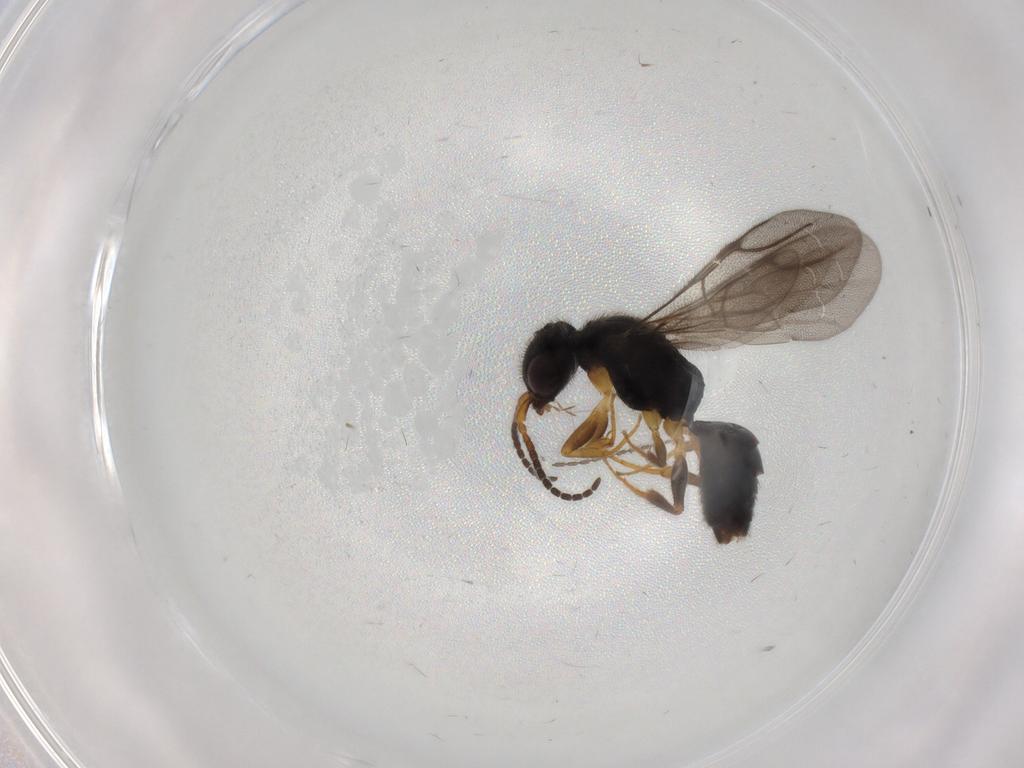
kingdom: Animalia
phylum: Arthropoda
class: Insecta
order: Hymenoptera
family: Bethylidae
